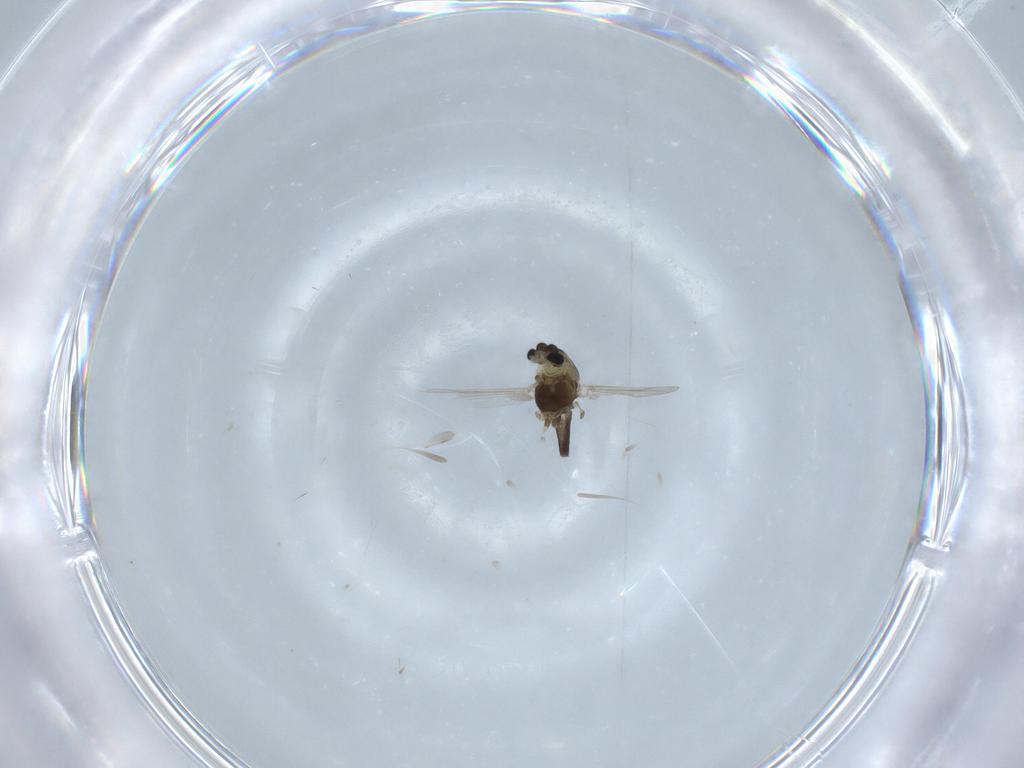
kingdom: Animalia
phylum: Arthropoda
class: Insecta
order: Diptera
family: Chironomidae
